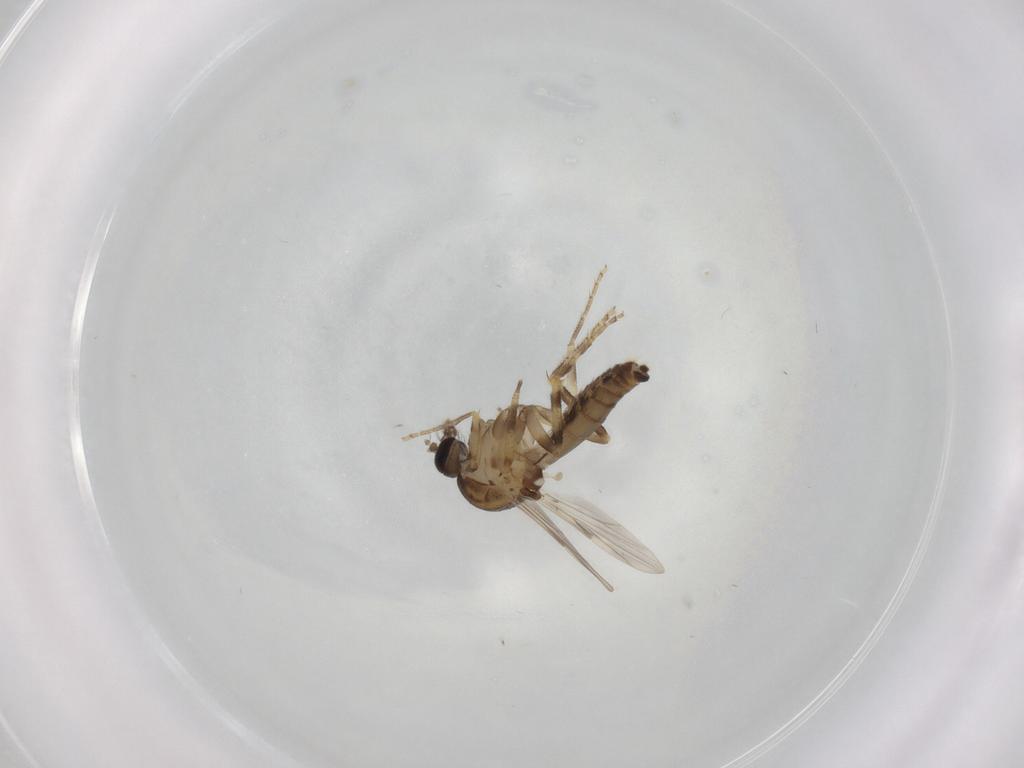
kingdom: Animalia
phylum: Arthropoda
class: Insecta
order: Diptera
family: Ceratopogonidae
